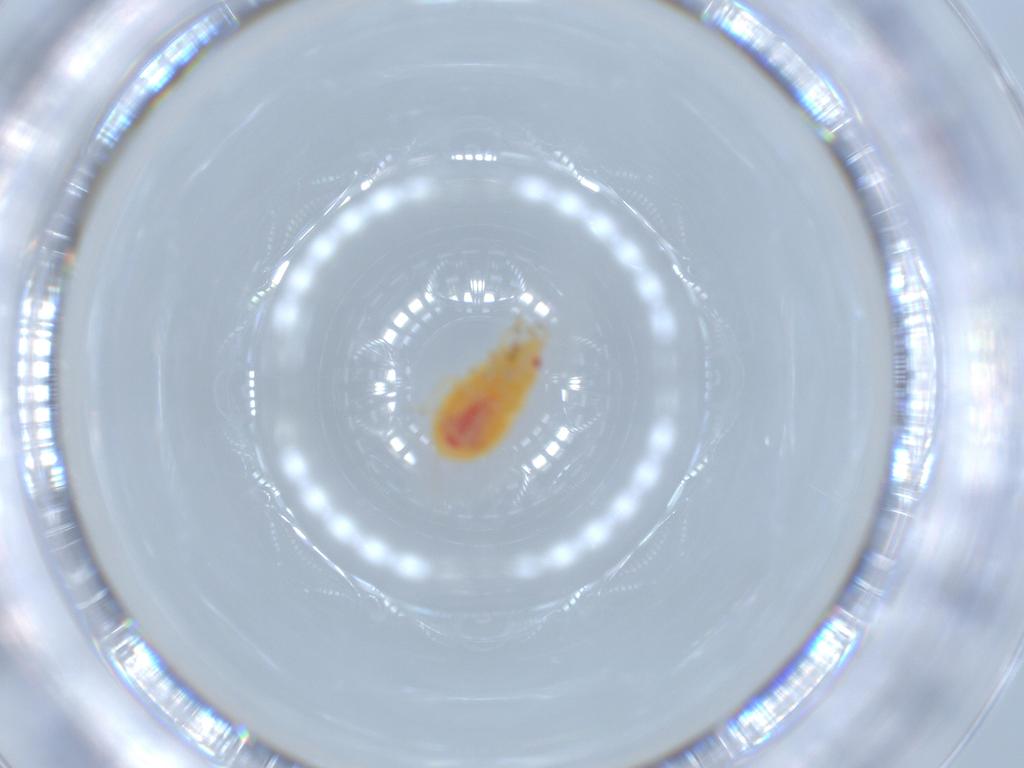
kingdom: Animalia
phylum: Arthropoda
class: Insecta
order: Hemiptera
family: Anthocoridae
